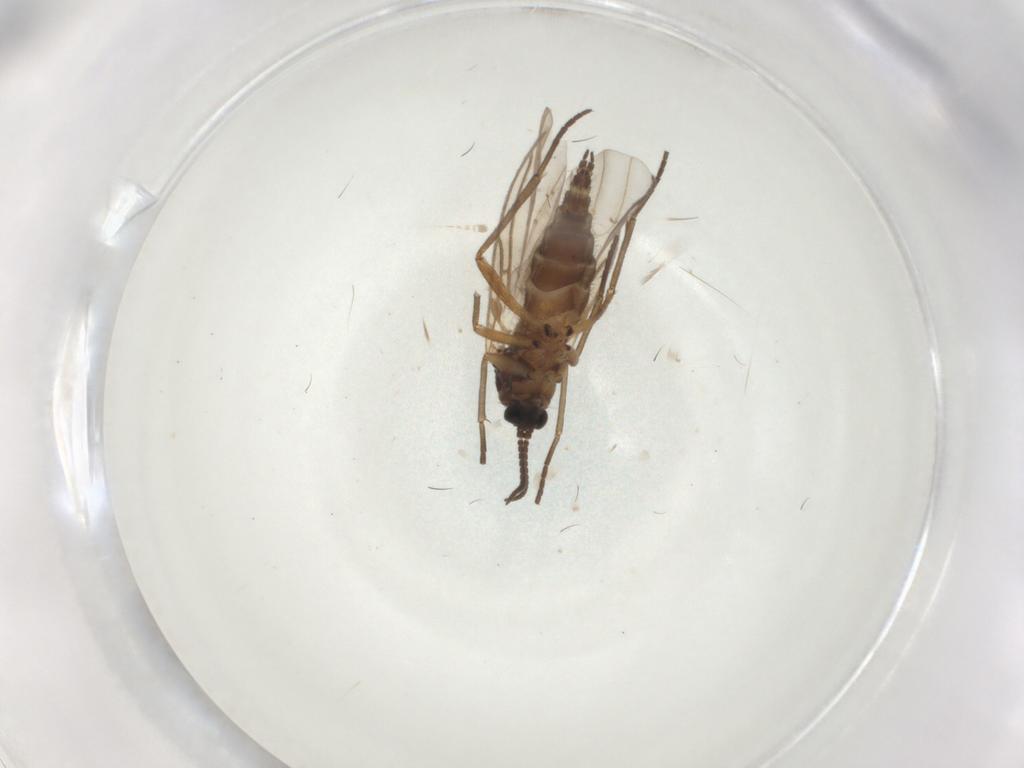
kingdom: Animalia
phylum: Arthropoda
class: Insecta
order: Diptera
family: Sciaridae
